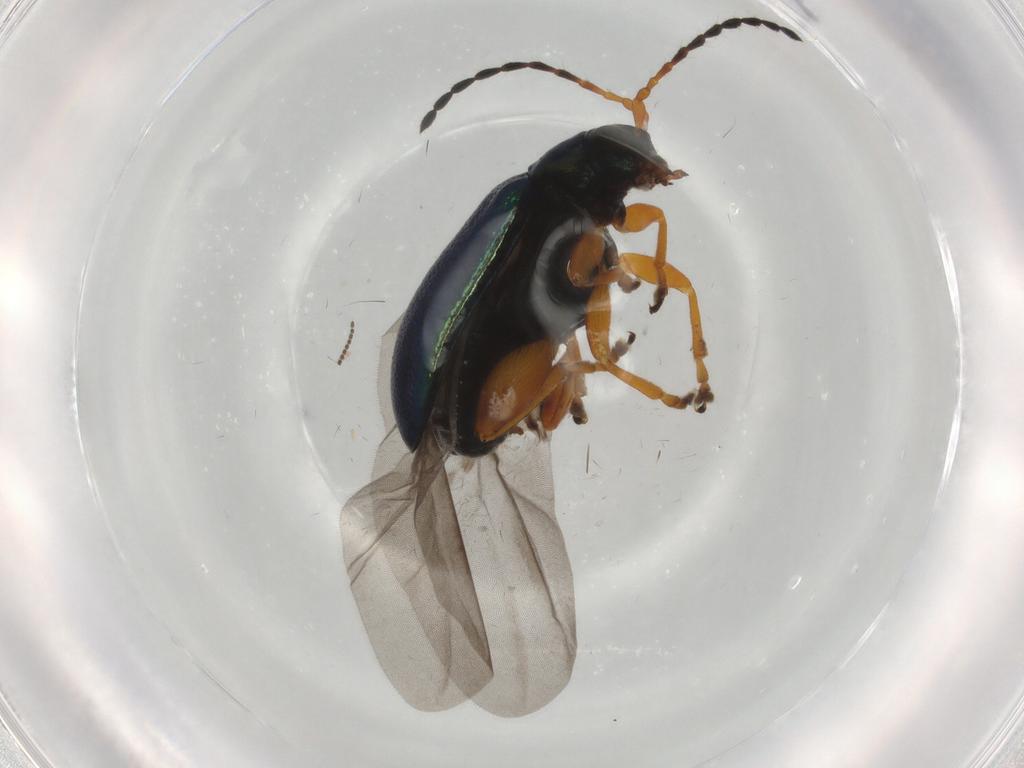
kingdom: Animalia
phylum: Arthropoda
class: Insecta
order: Coleoptera
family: Chrysomelidae
